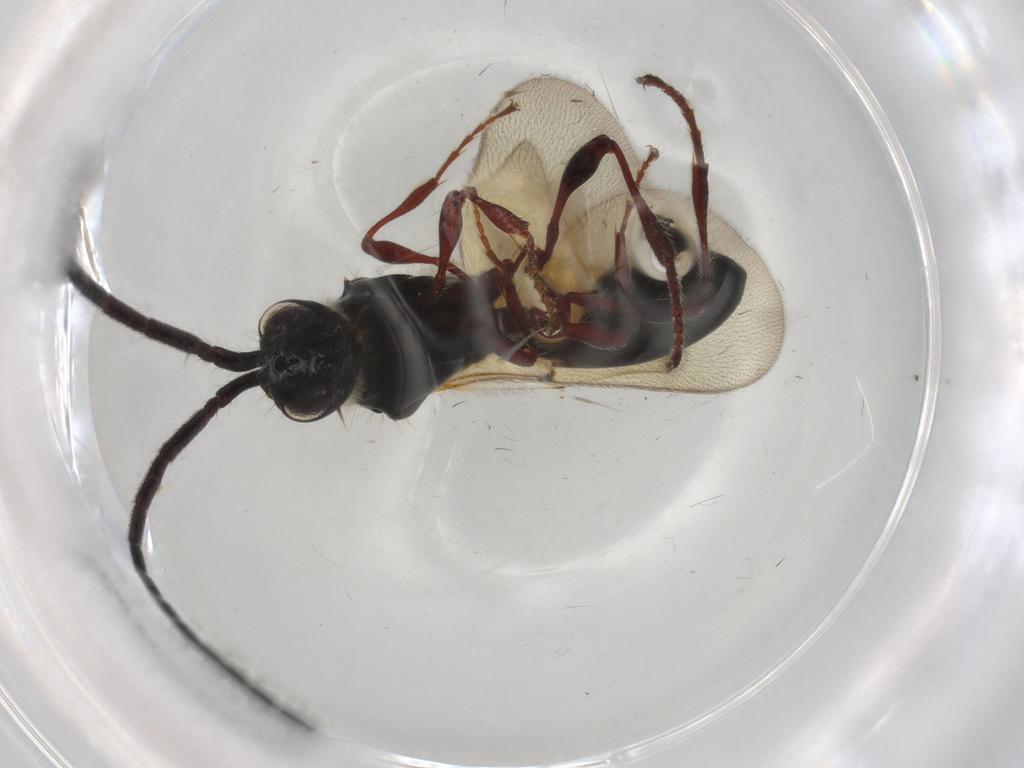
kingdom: Animalia
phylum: Arthropoda
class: Insecta
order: Hymenoptera
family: Diapriidae
